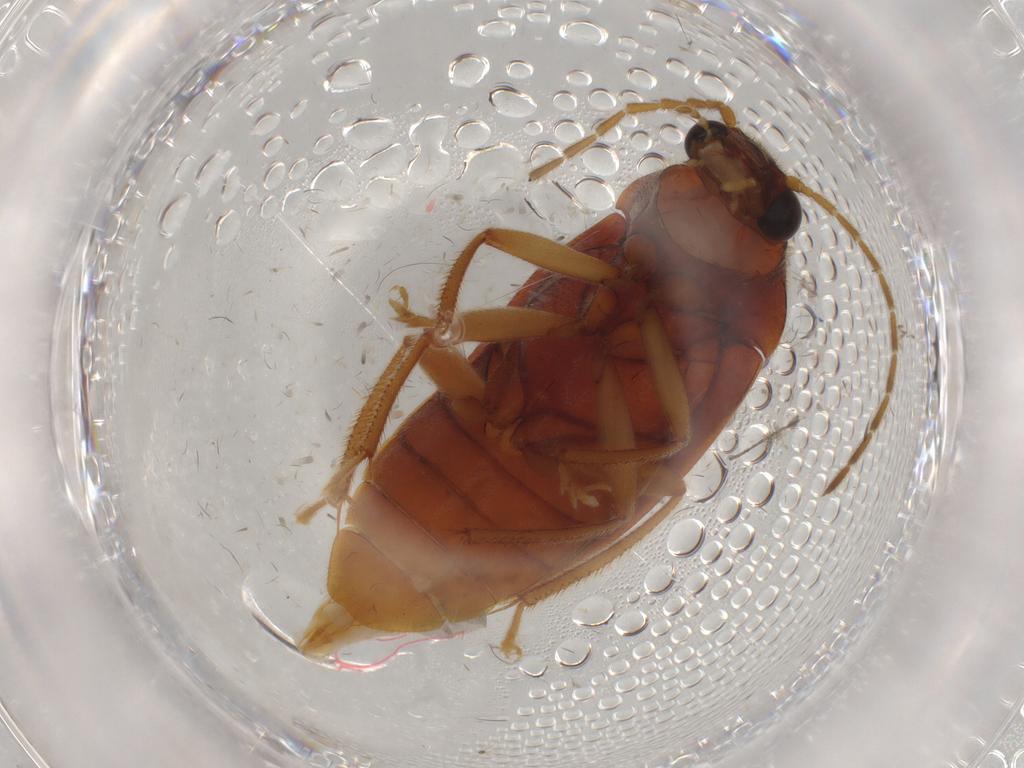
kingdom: Animalia
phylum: Arthropoda
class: Insecta
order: Coleoptera
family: Ptilodactylidae
